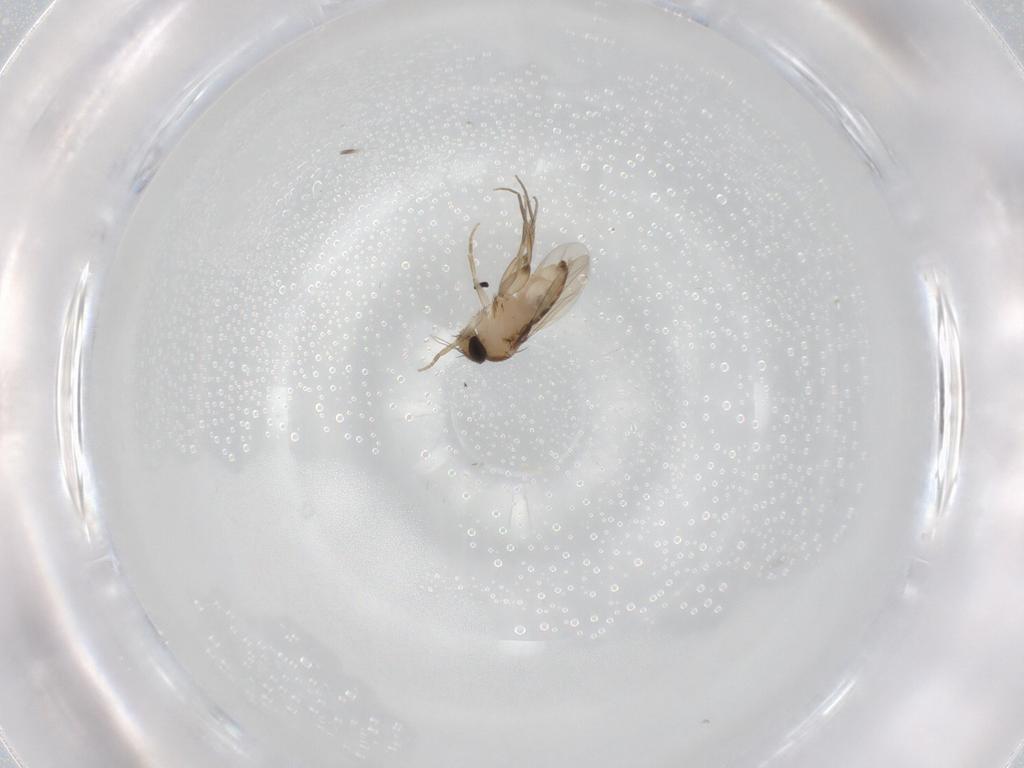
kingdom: Animalia
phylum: Arthropoda
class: Insecta
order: Diptera
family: Phoridae
